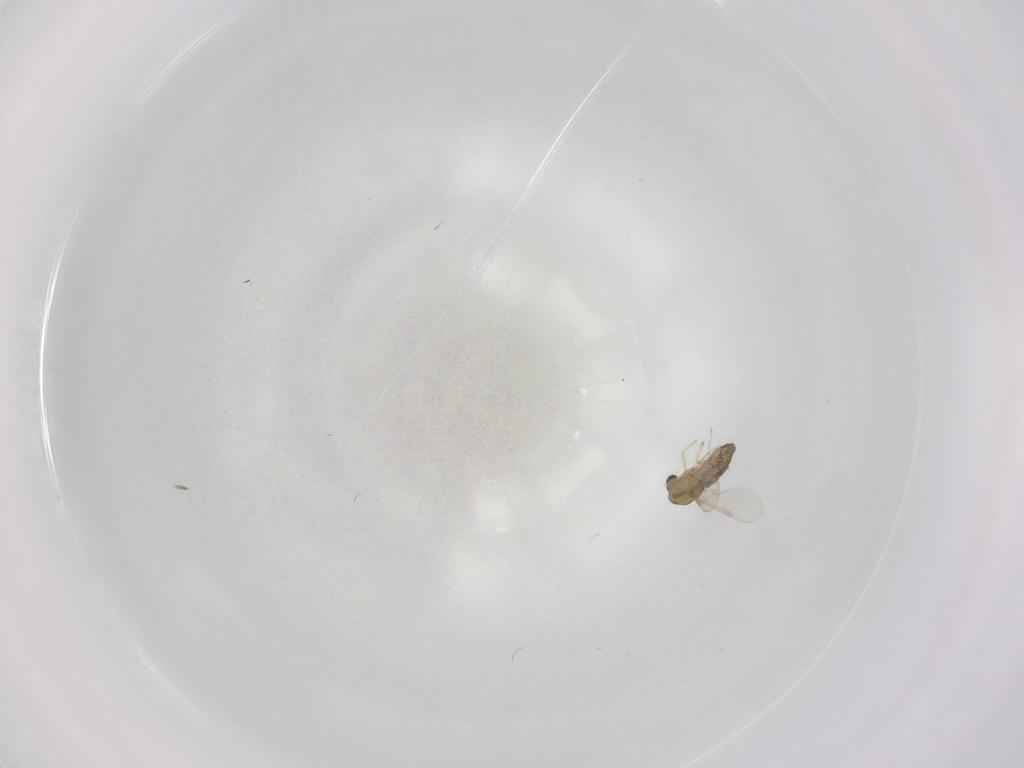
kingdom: Animalia
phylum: Arthropoda
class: Insecta
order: Diptera
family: Chironomidae
